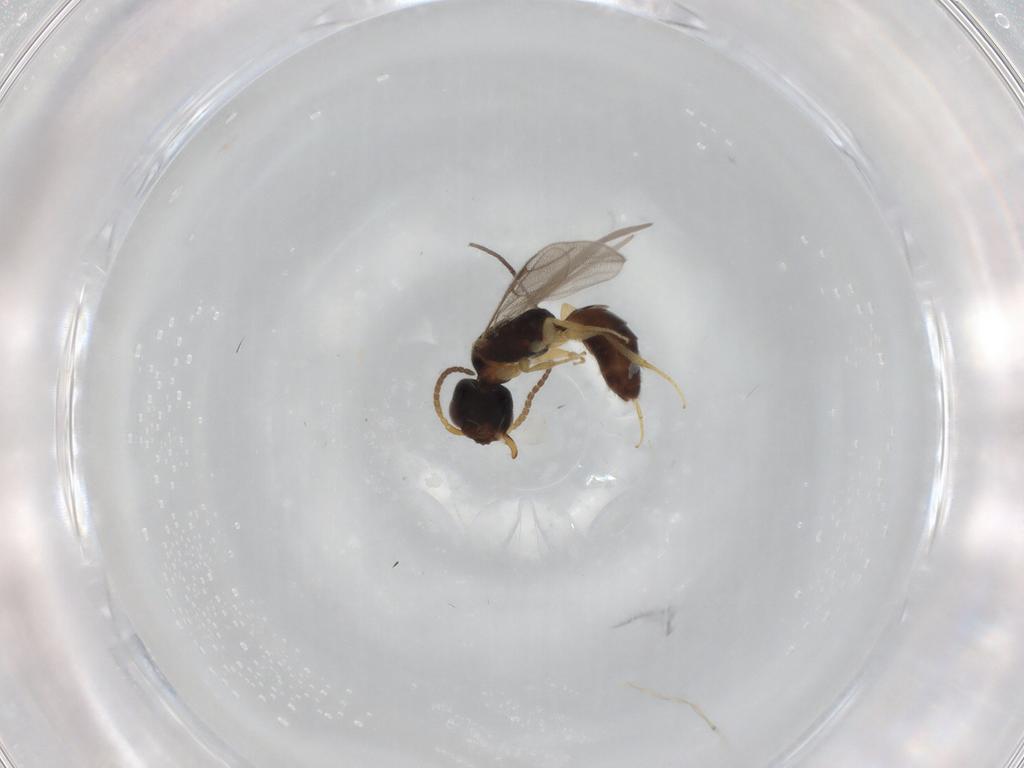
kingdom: Animalia
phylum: Arthropoda
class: Insecta
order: Hymenoptera
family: Bethylidae
